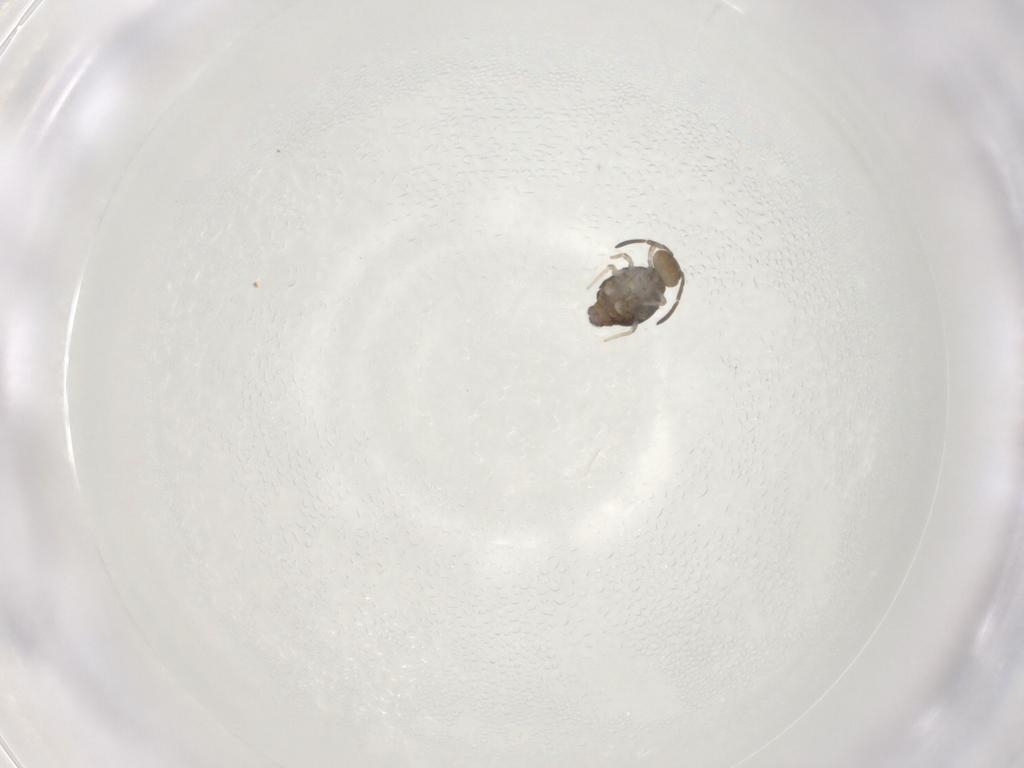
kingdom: Animalia
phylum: Arthropoda
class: Collembola
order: Symphypleona
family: Katiannidae
